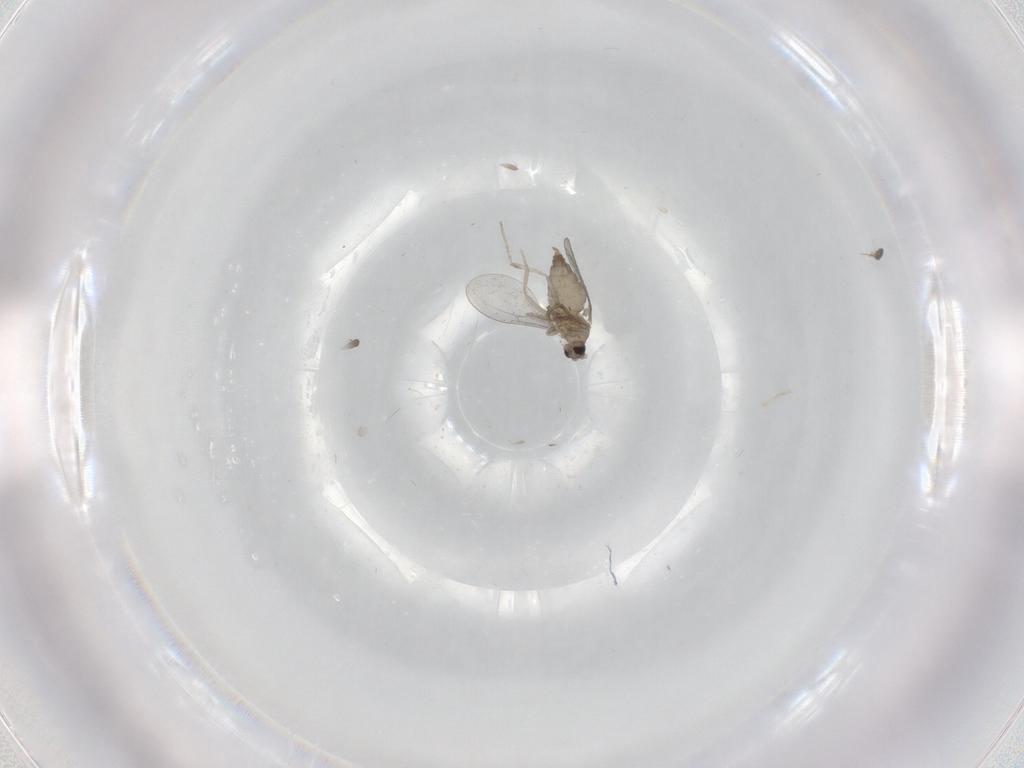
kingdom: Animalia
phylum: Arthropoda
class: Insecta
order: Diptera
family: Cecidomyiidae
